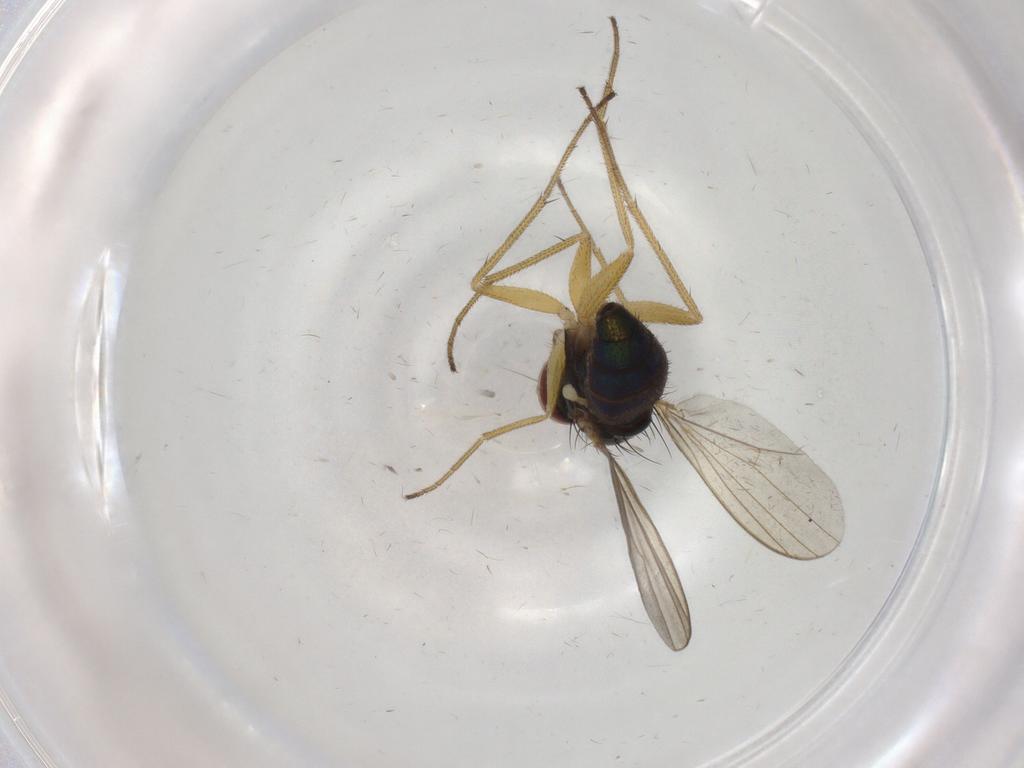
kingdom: Animalia
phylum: Arthropoda
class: Insecta
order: Diptera
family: Dolichopodidae
